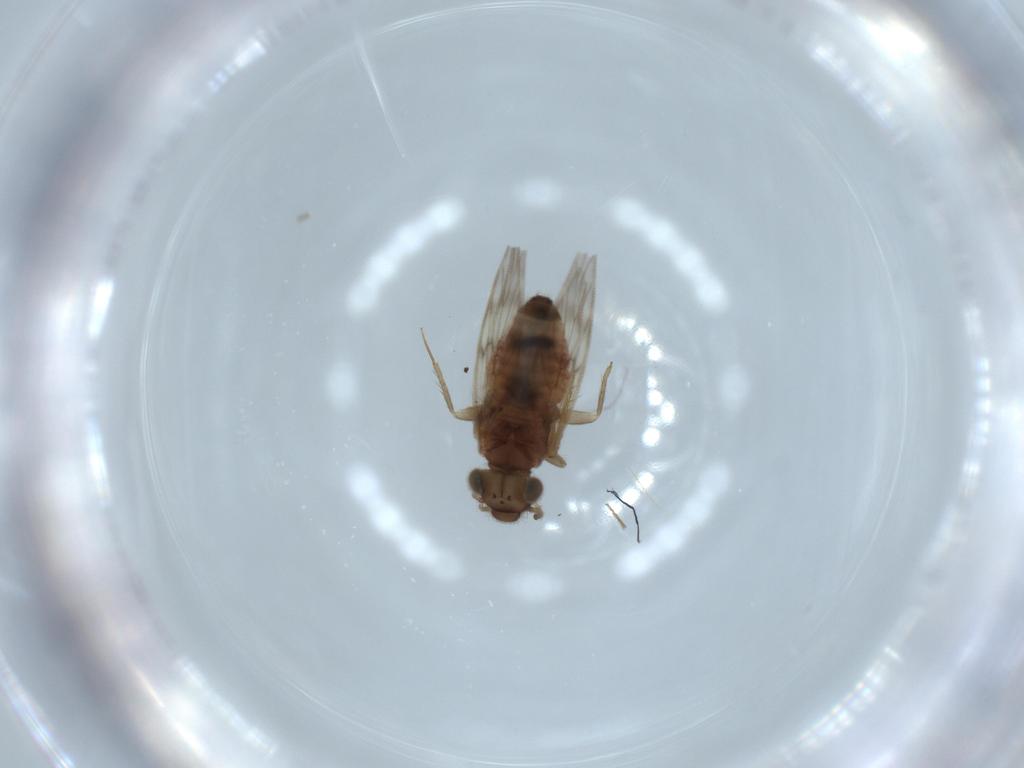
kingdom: Animalia
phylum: Arthropoda
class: Insecta
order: Psocodea
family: Lepidopsocidae
